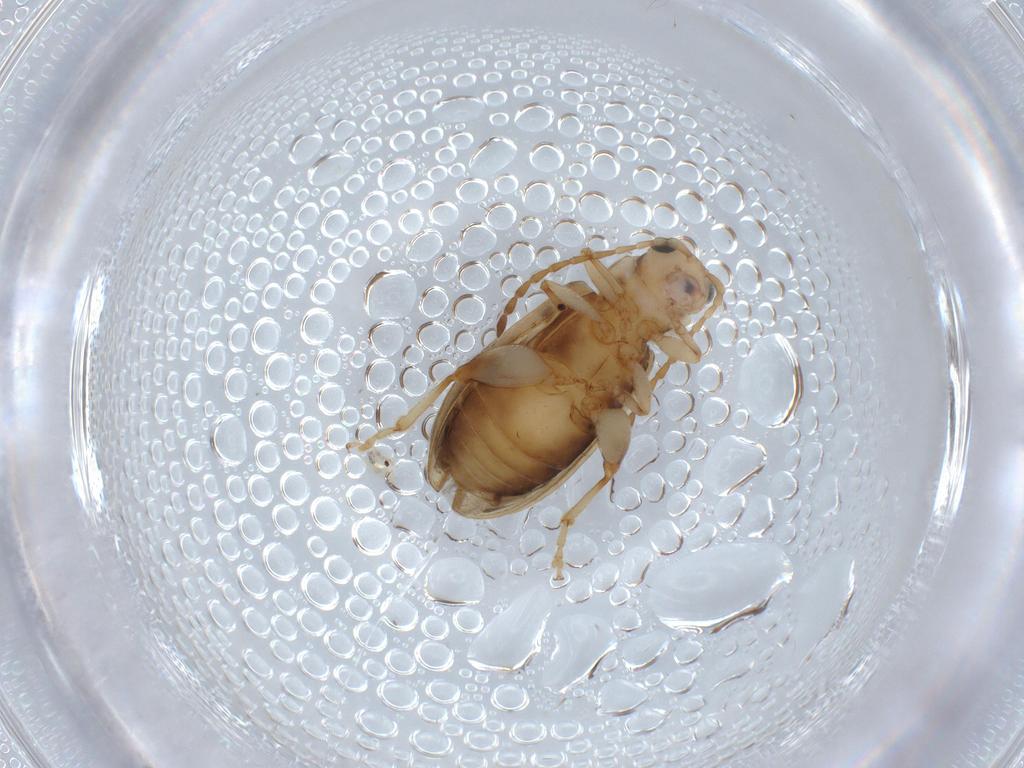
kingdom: Animalia
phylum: Arthropoda
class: Insecta
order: Coleoptera
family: Chrysomelidae
